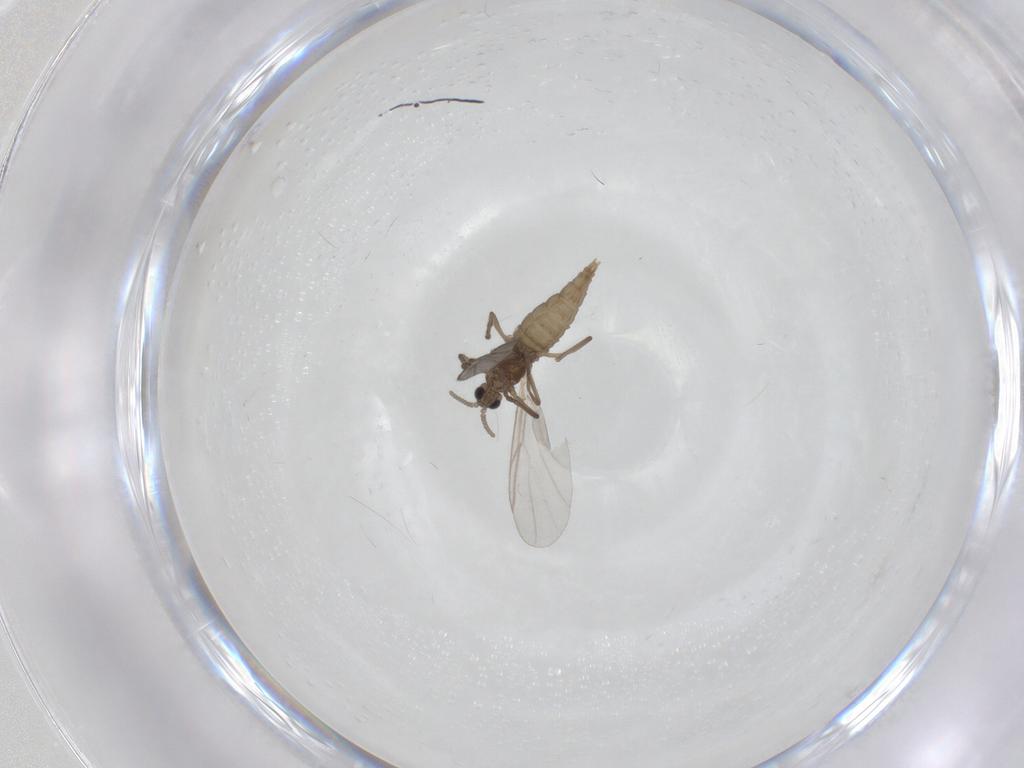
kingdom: Animalia
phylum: Arthropoda
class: Insecta
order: Diptera
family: Cecidomyiidae
